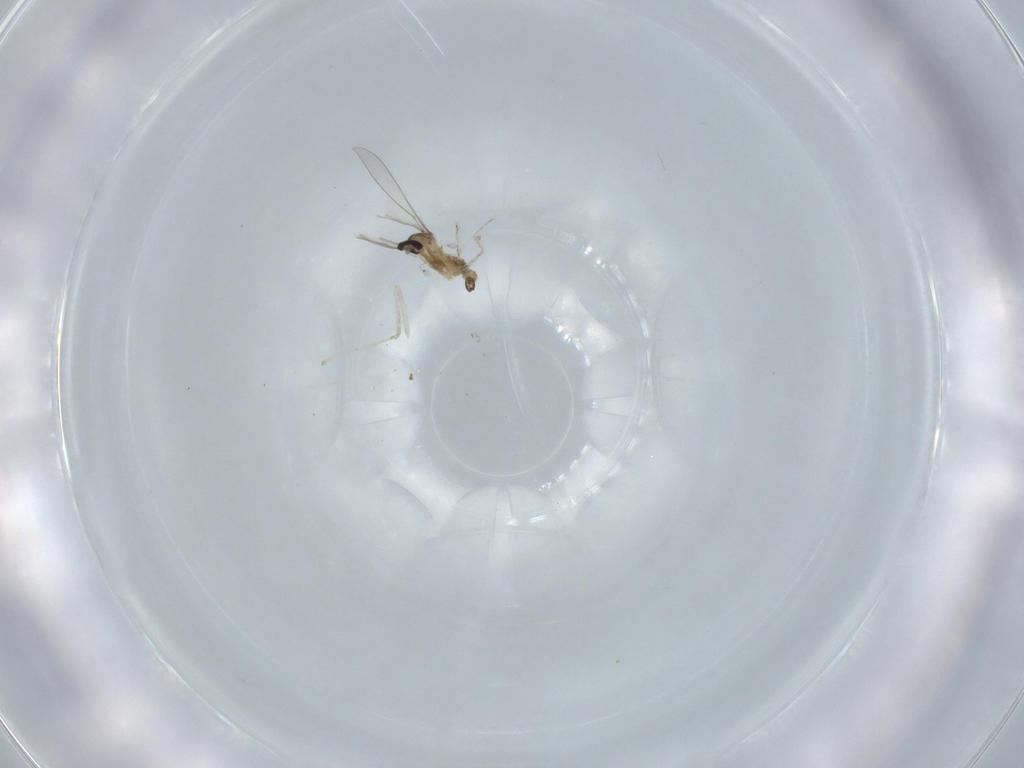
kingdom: Animalia
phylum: Arthropoda
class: Insecta
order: Diptera
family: Cecidomyiidae
